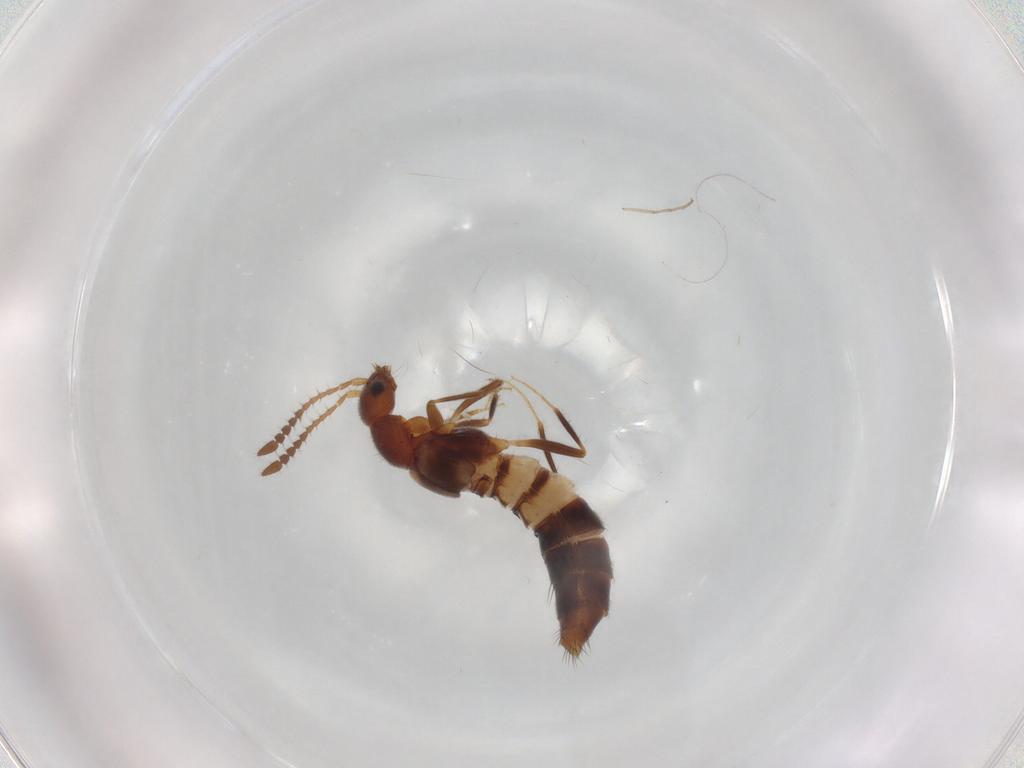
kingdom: Animalia
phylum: Arthropoda
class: Insecta
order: Coleoptera
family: Staphylinidae
